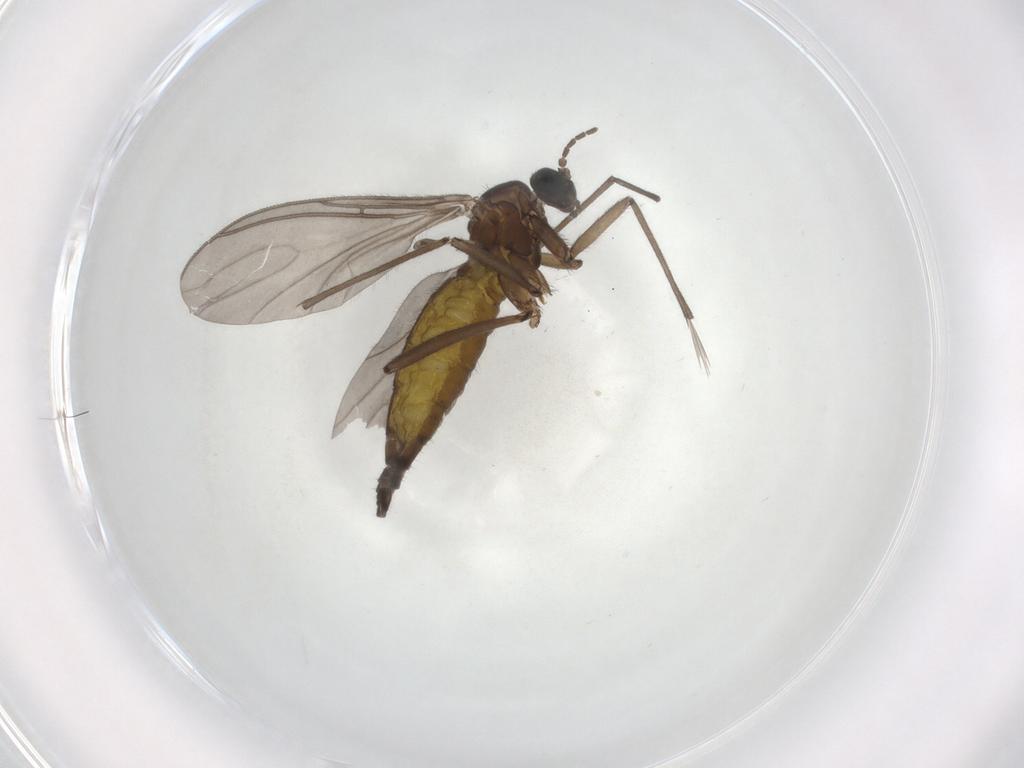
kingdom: Animalia
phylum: Arthropoda
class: Insecta
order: Diptera
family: Sciaridae
